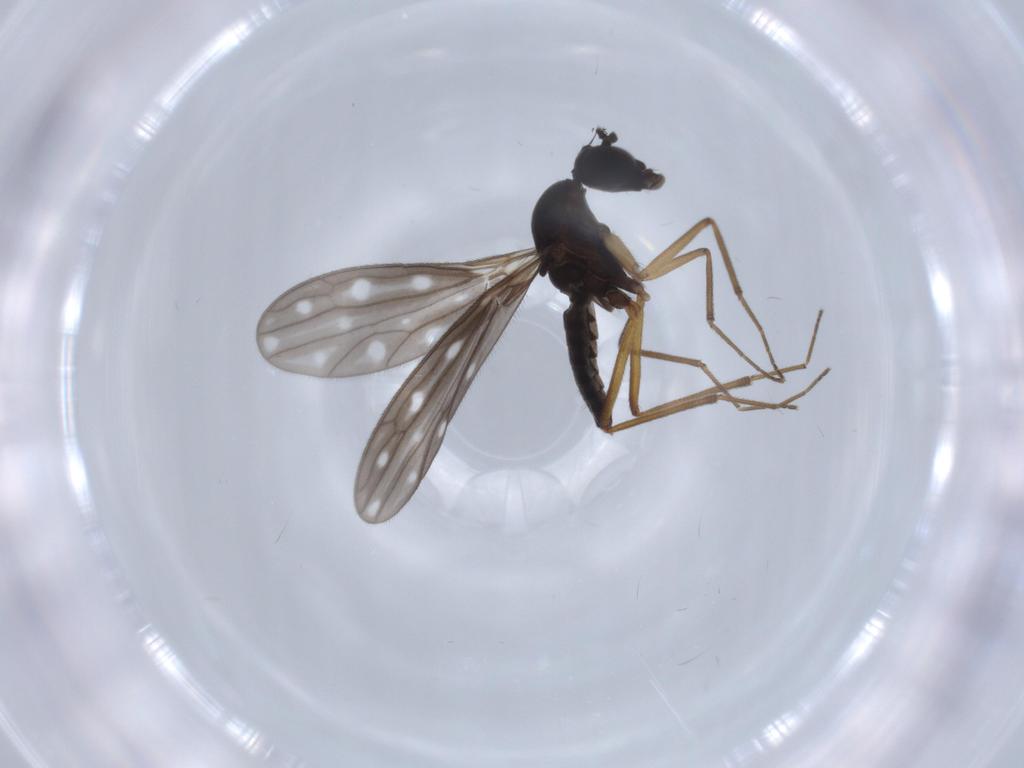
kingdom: Animalia
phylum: Arthropoda
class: Insecta
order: Diptera
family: Empididae
